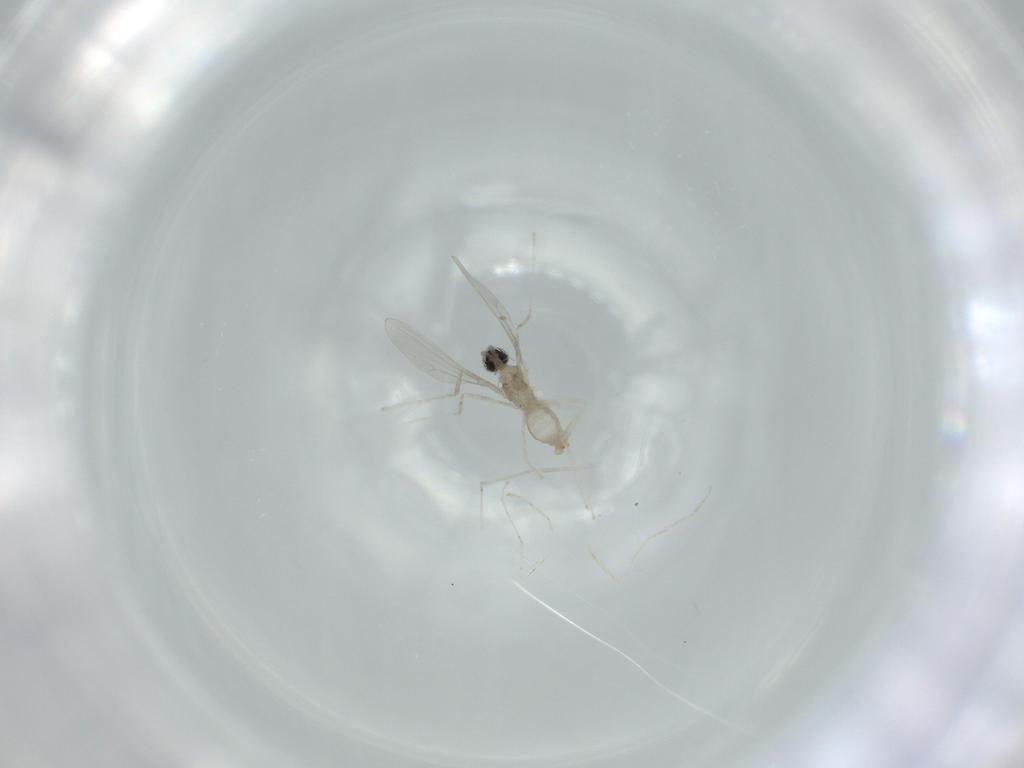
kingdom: Animalia
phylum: Arthropoda
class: Insecta
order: Diptera
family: Cecidomyiidae
